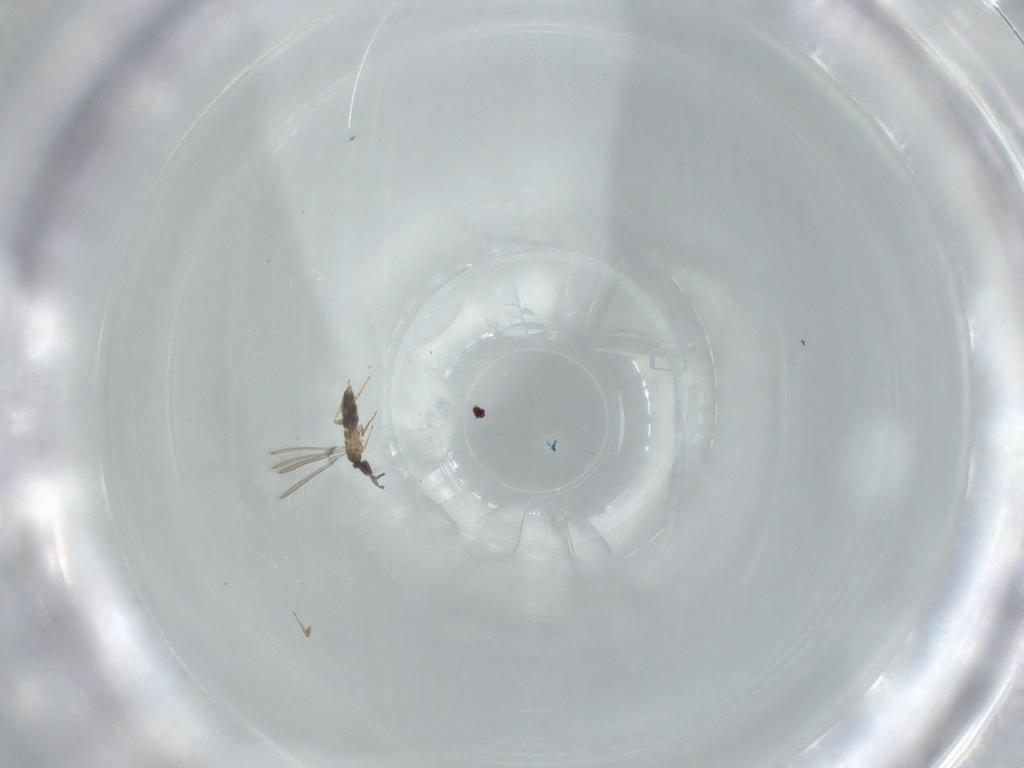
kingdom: Animalia
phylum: Arthropoda
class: Insecta
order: Hymenoptera
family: Mymaridae
